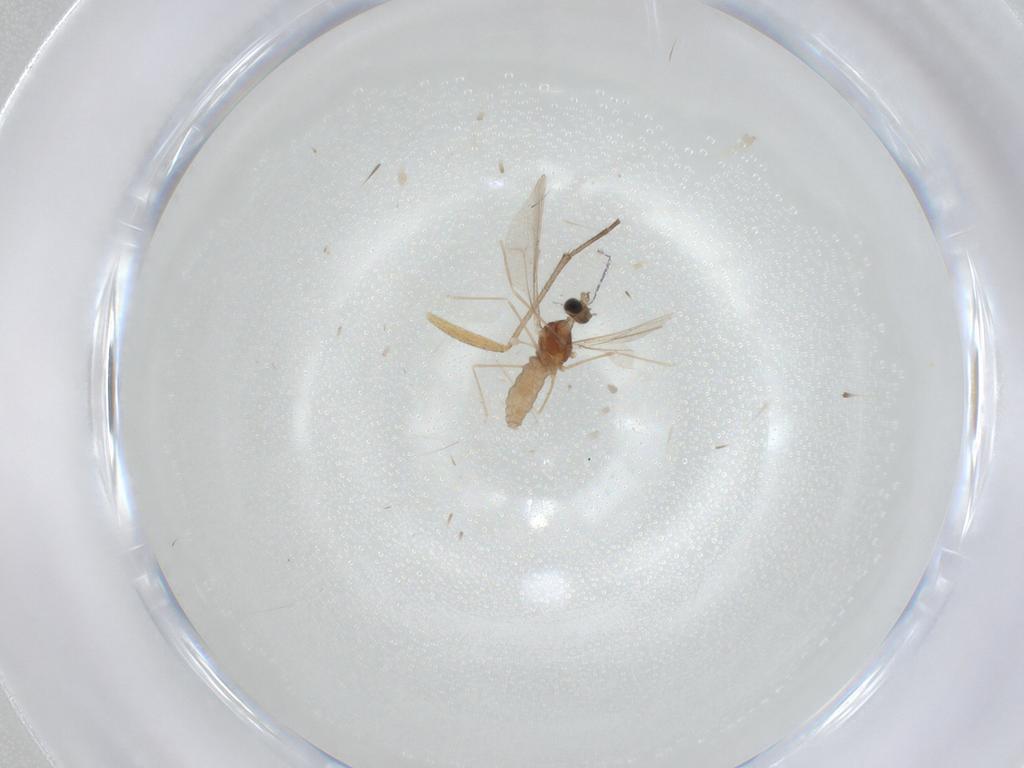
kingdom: Animalia
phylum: Arthropoda
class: Insecta
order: Diptera
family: Cecidomyiidae
